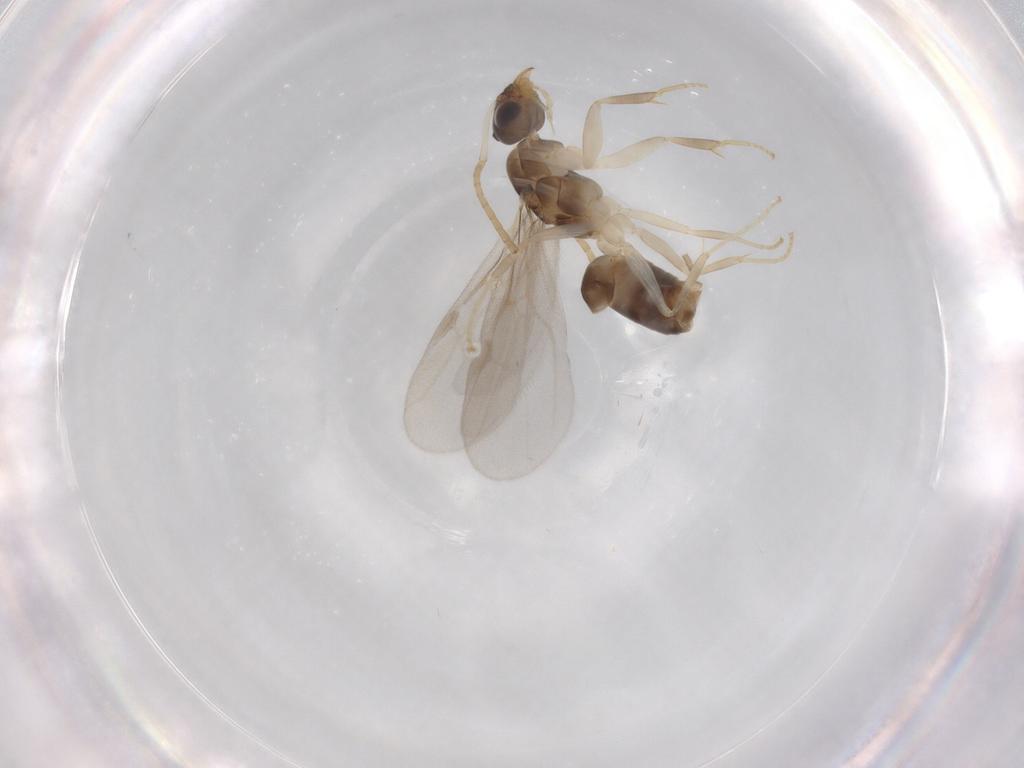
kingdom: Animalia
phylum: Arthropoda
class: Insecta
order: Hymenoptera
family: Formicidae
